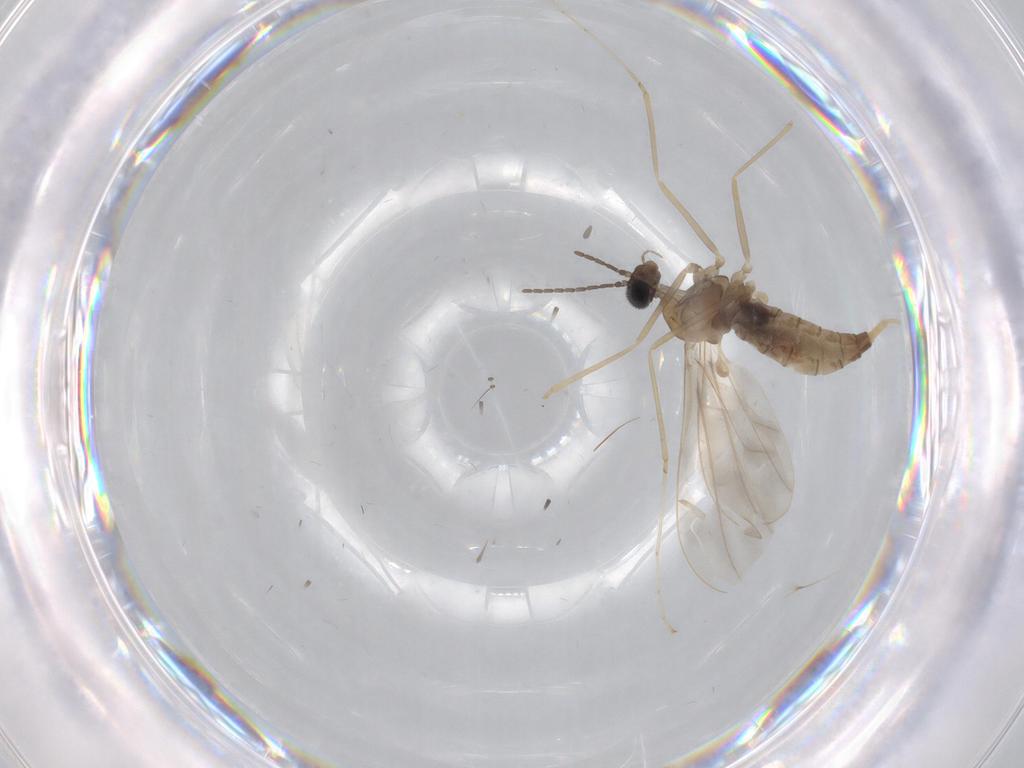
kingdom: Animalia
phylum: Arthropoda
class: Insecta
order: Diptera
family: Cecidomyiidae
